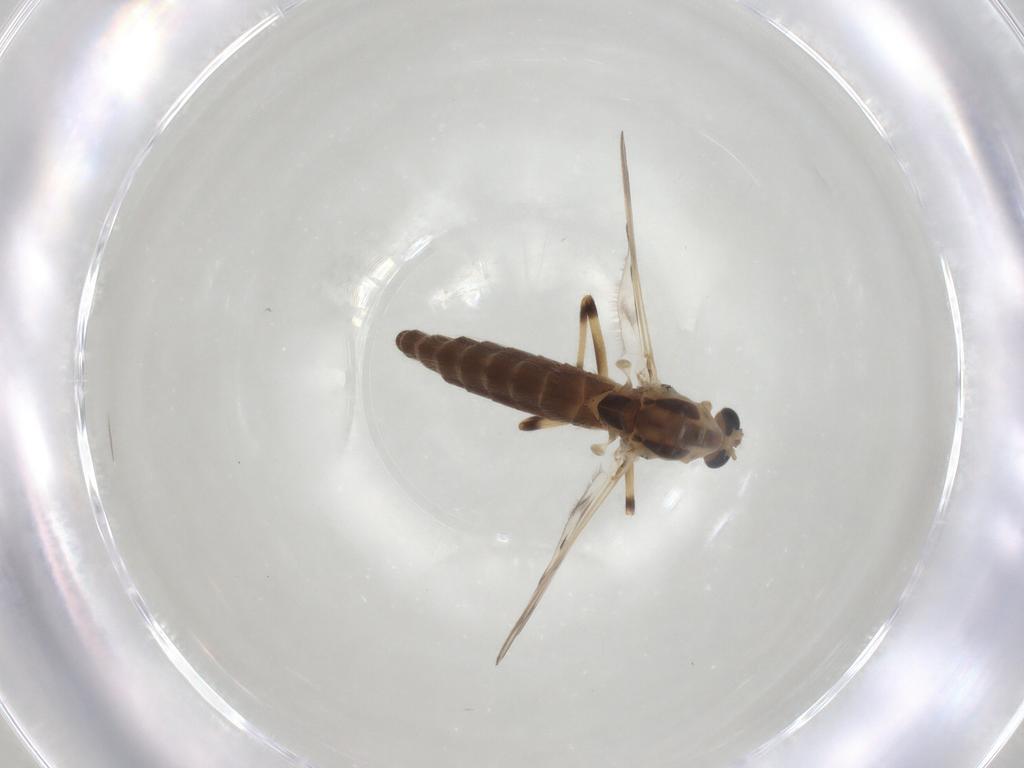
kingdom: Animalia
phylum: Arthropoda
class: Insecta
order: Diptera
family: Chironomidae
